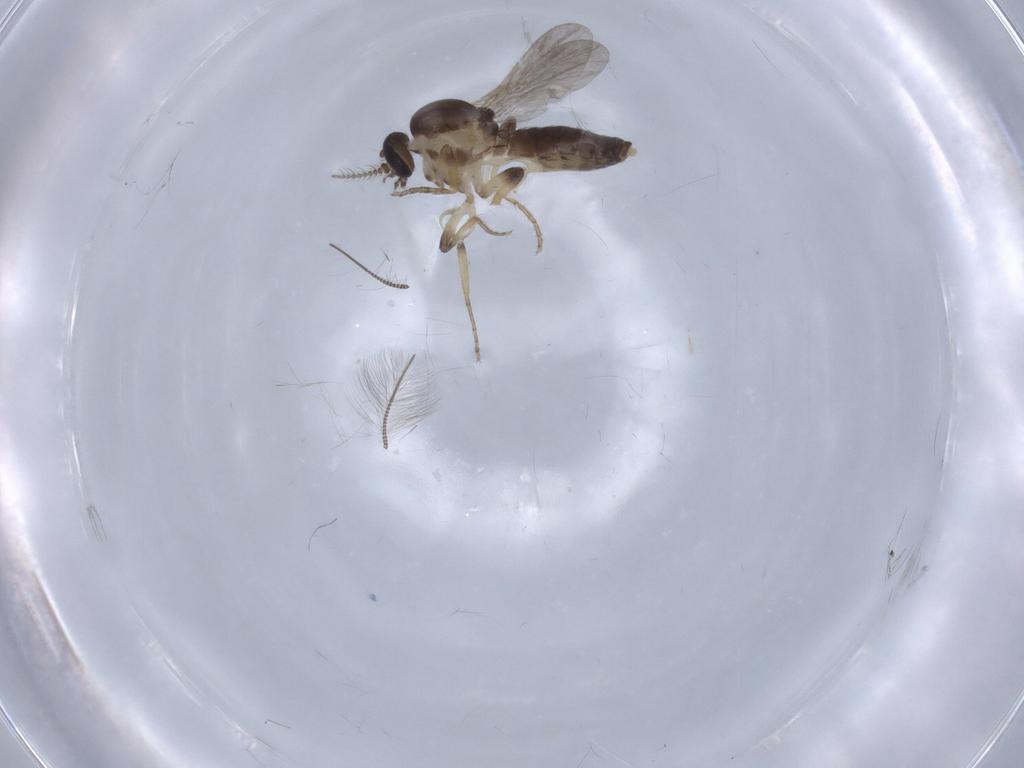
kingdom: Animalia
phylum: Arthropoda
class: Insecta
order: Diptera
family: Ceratopogonidae
